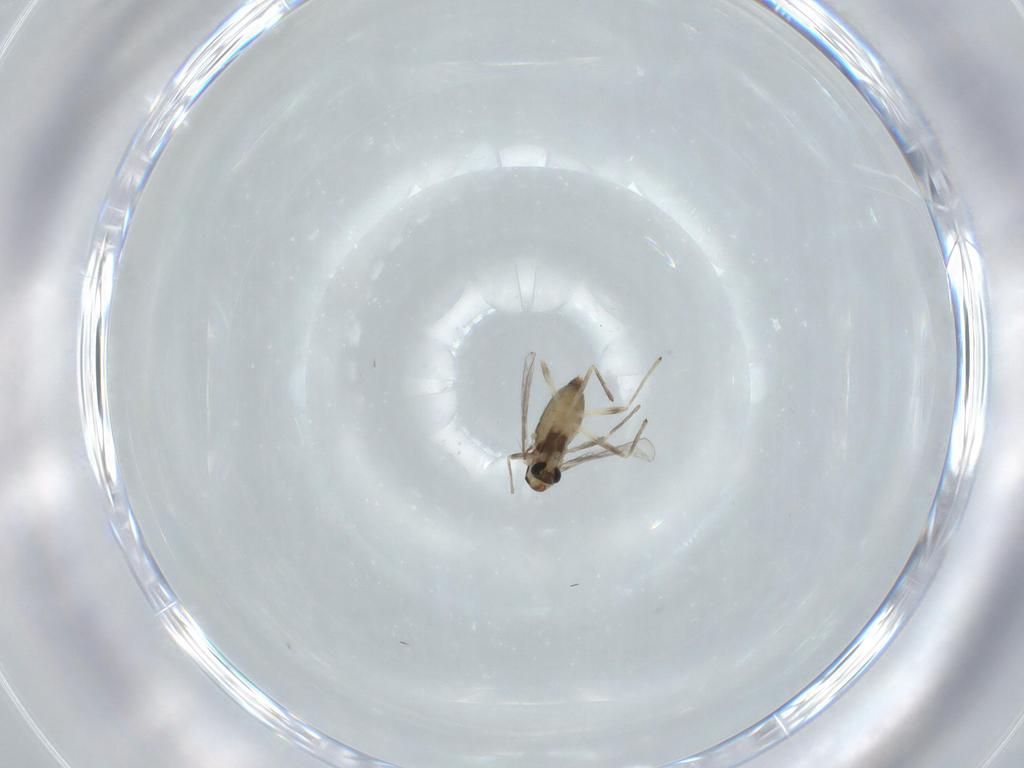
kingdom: Animalia
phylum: Arthropoda
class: Insecta
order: Diptera
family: Chironomidae
